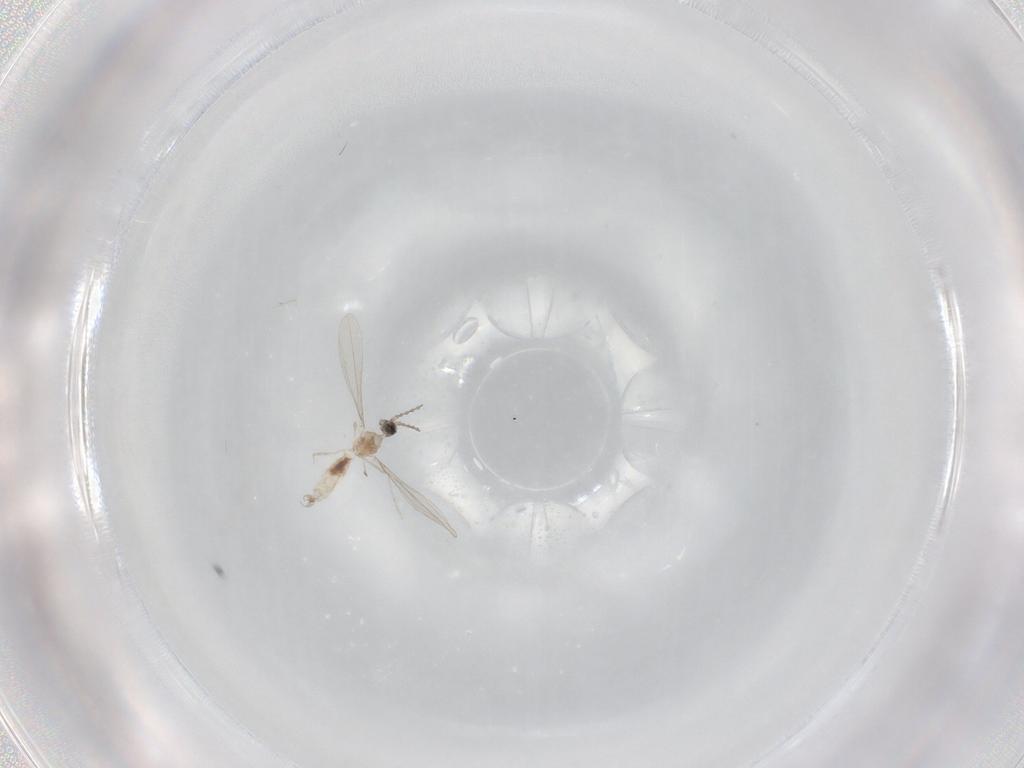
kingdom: Animalia
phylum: Arthropoda
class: Insecta
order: Diptera
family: Cecidomyiidae
